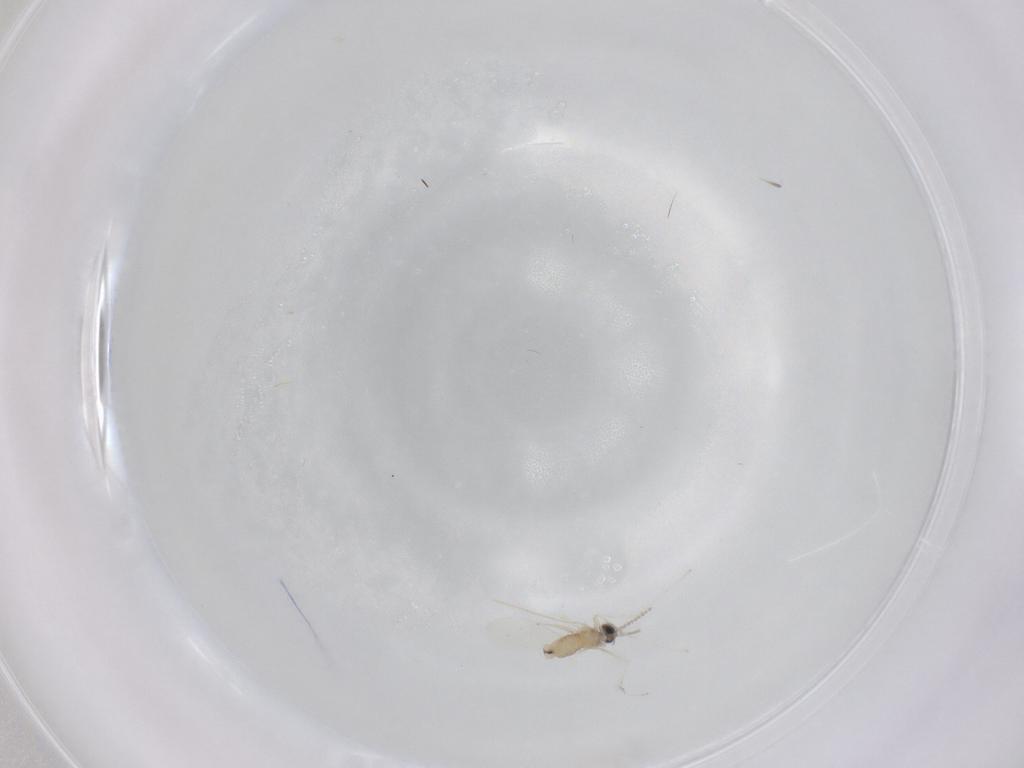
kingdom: Animalia
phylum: Arthropoda
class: Insecta
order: Diptera
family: Cecidomyiidae
